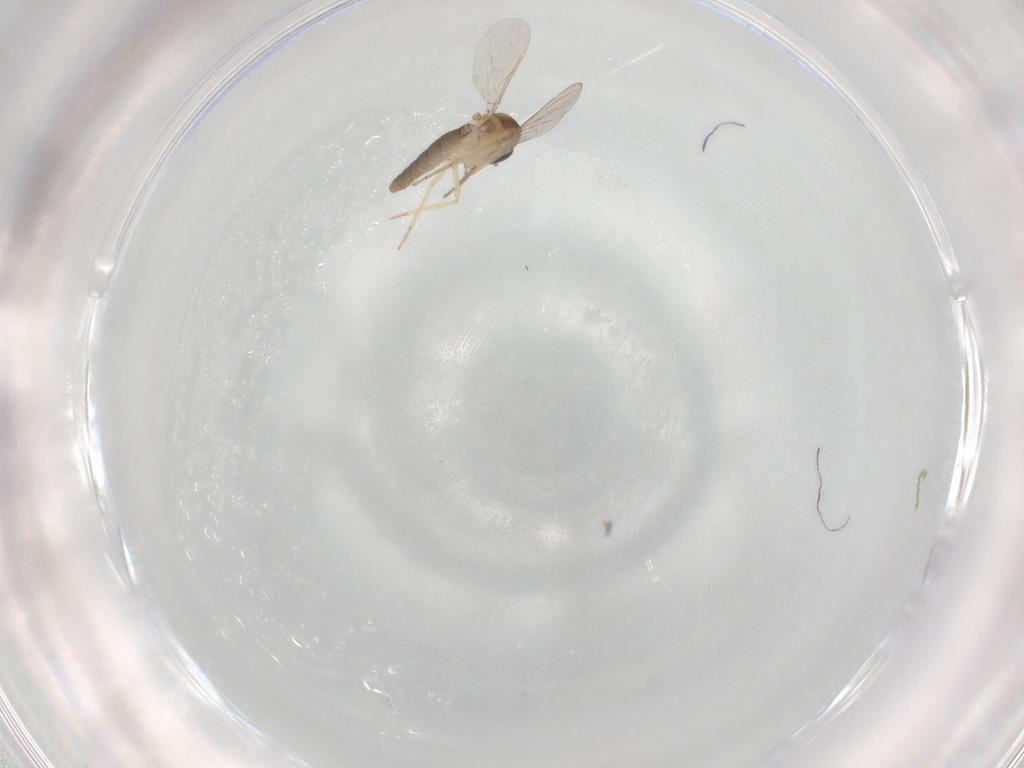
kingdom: Animalia
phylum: Arthropoda
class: Insecta
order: Diptera
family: Ceratopogonidae
